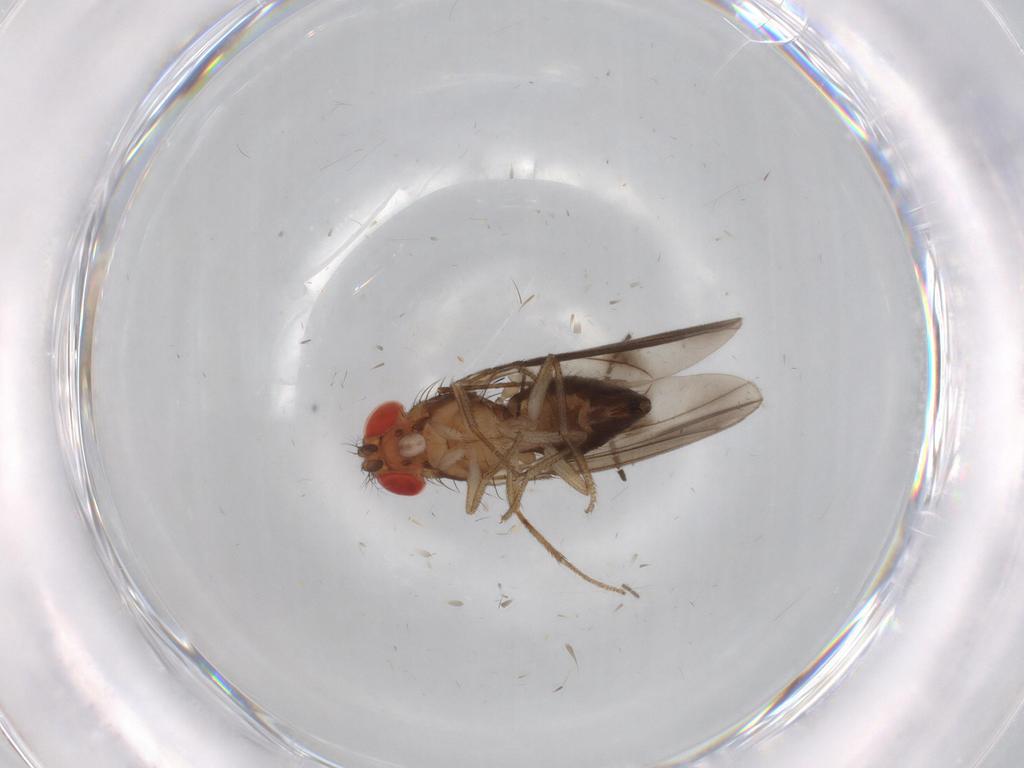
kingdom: Animalia
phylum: Arthropoda
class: Insecta
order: Diptera
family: Drosophilidae
